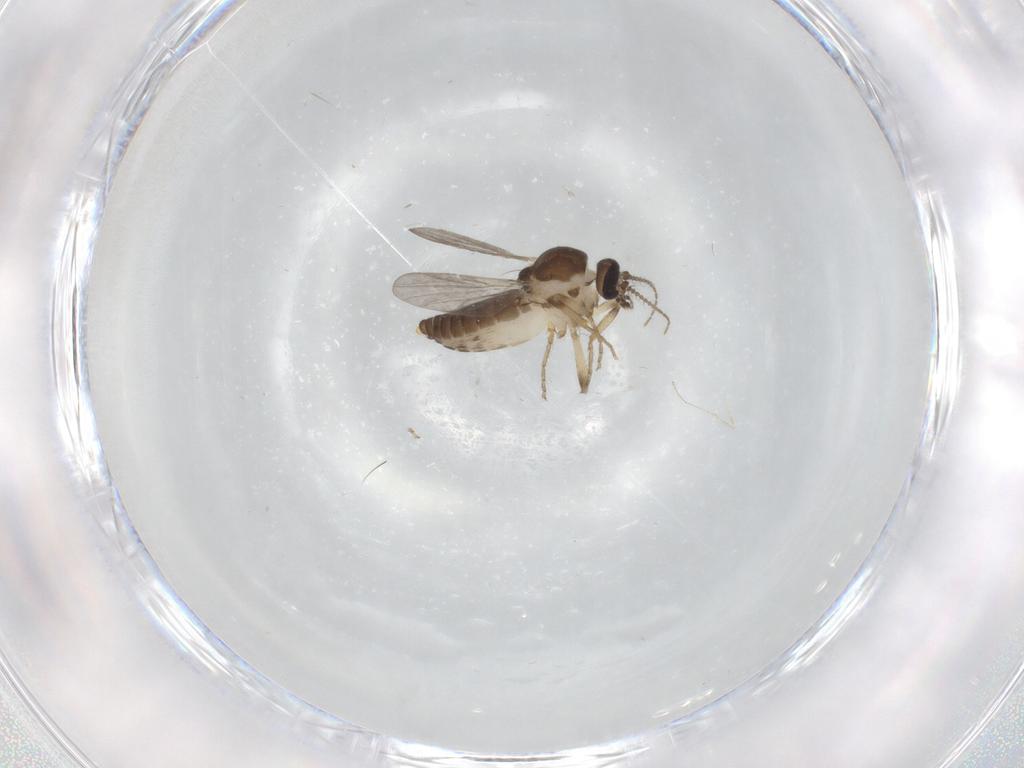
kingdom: Animalia
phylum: Arthropoda
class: Insecta
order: Diptera
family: Ceratopogonidae
